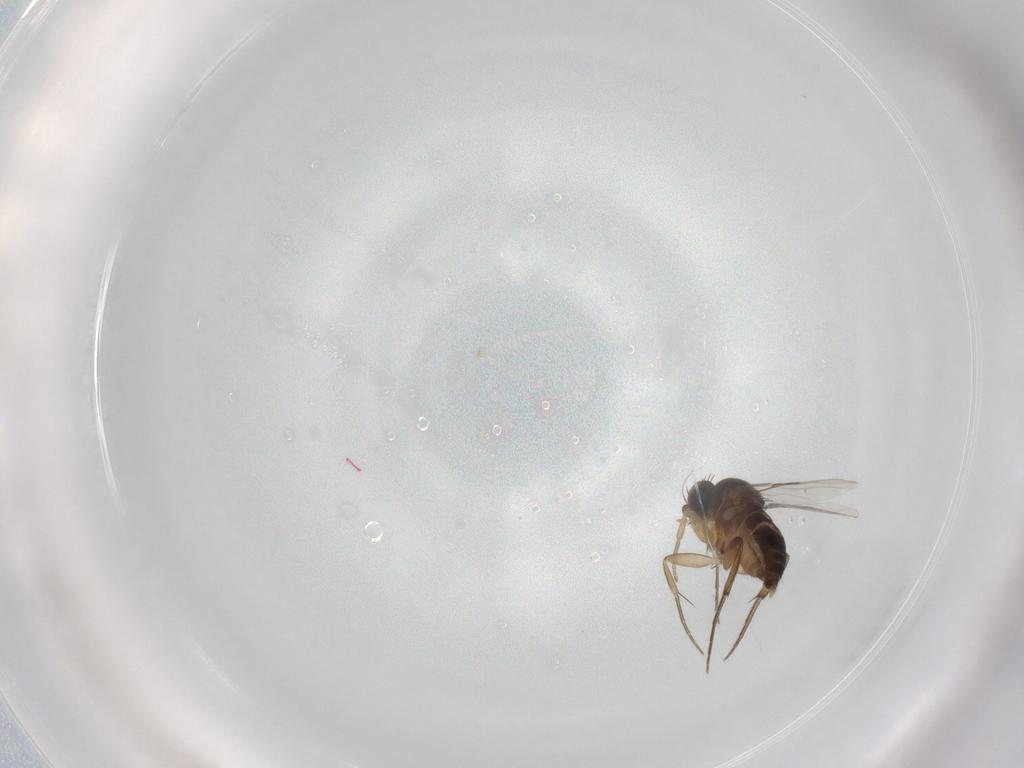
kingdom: Animalia
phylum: Arthropoda
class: Insecta
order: Diptera
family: Phoridae
